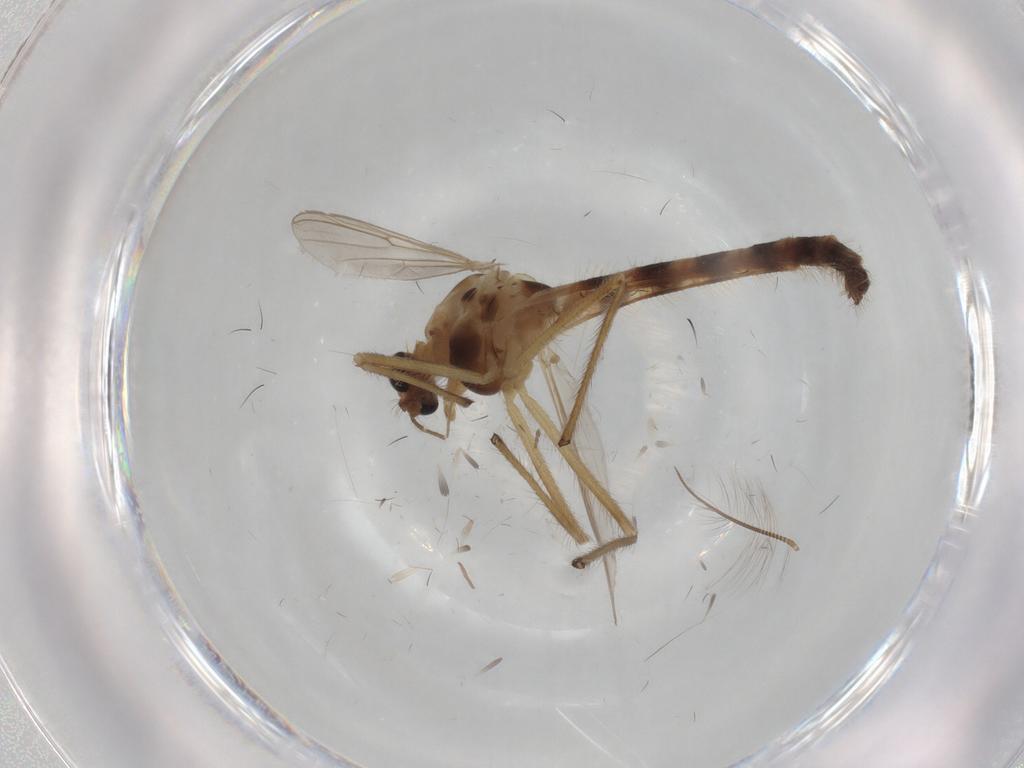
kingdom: Animalia
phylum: Arthropoda
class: Insecta
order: Diptera
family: Chironomidae
